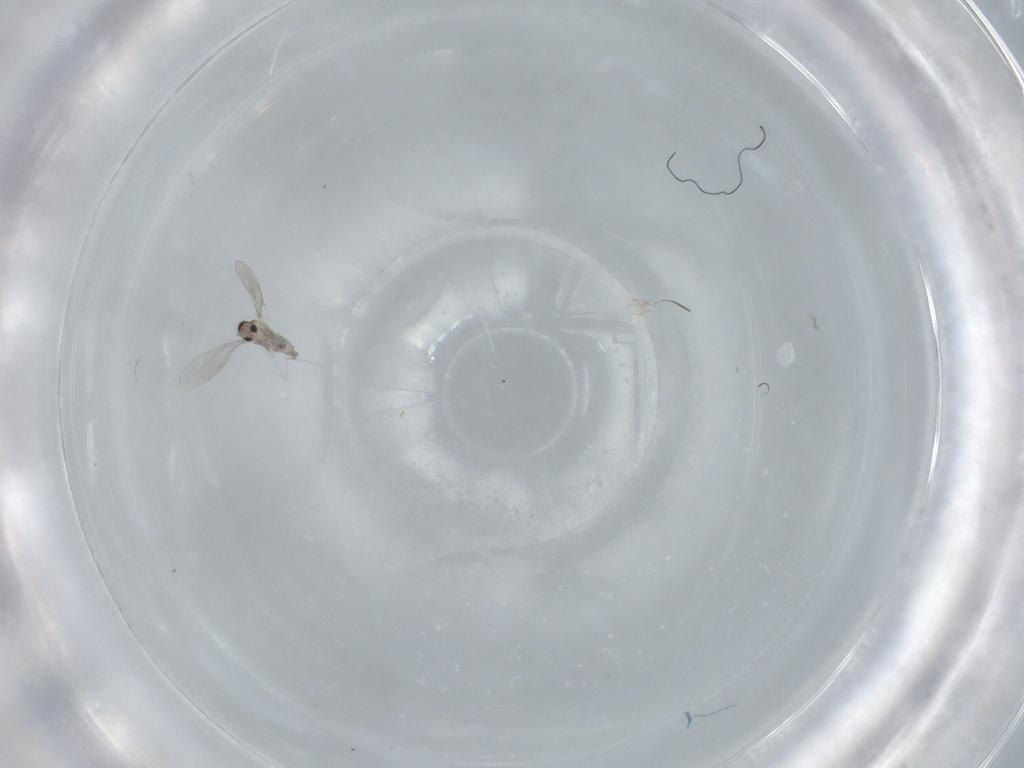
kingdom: Animalia
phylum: Arthropoda
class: Insecta
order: Diptera
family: Cecidomyiidae
